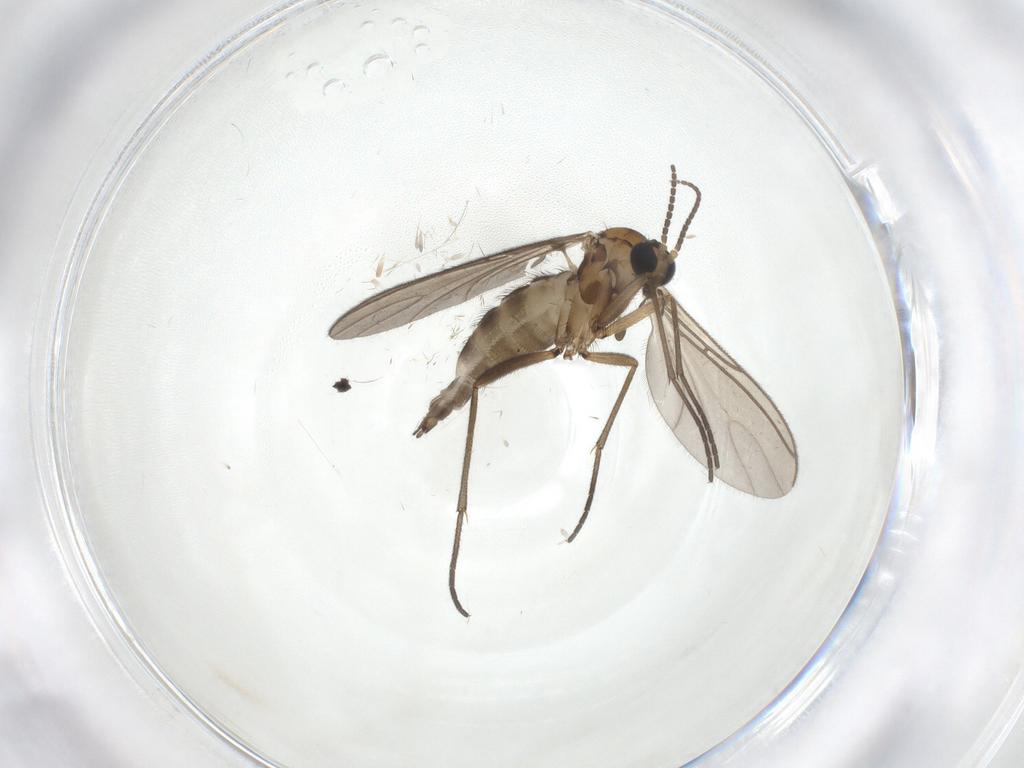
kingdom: Animalia
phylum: Arthropoda
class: Insecta
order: Diptera
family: Sciaridae
